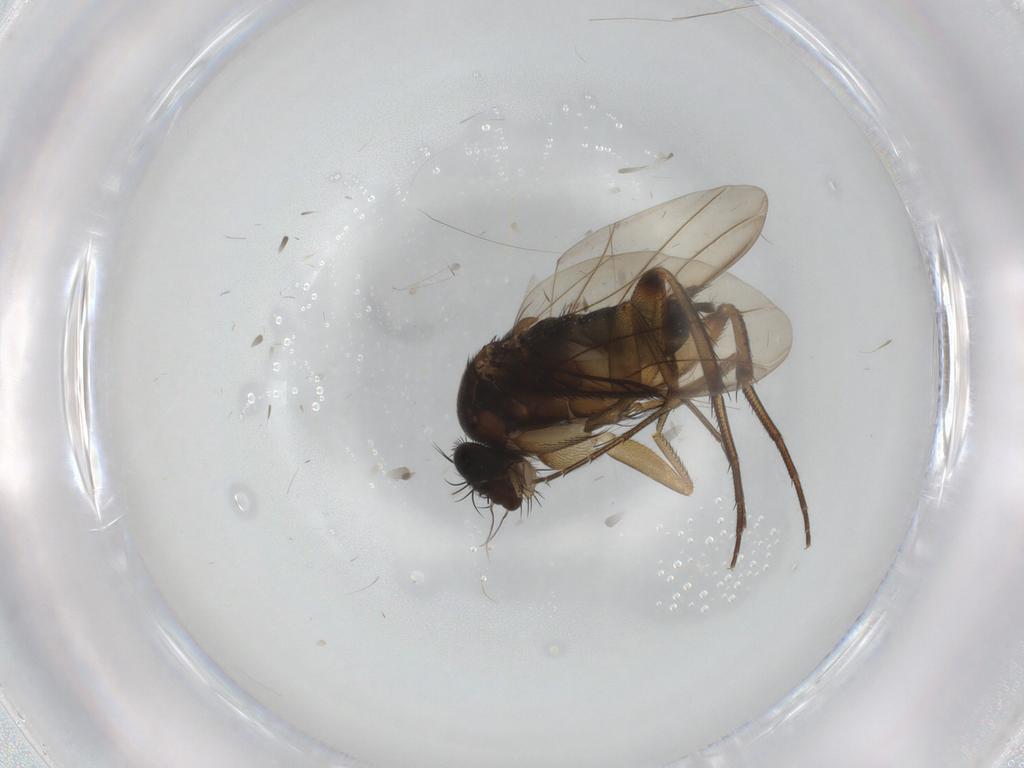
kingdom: Animalia
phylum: Arthropoda
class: Insecta
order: Diptera
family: Phoridae
